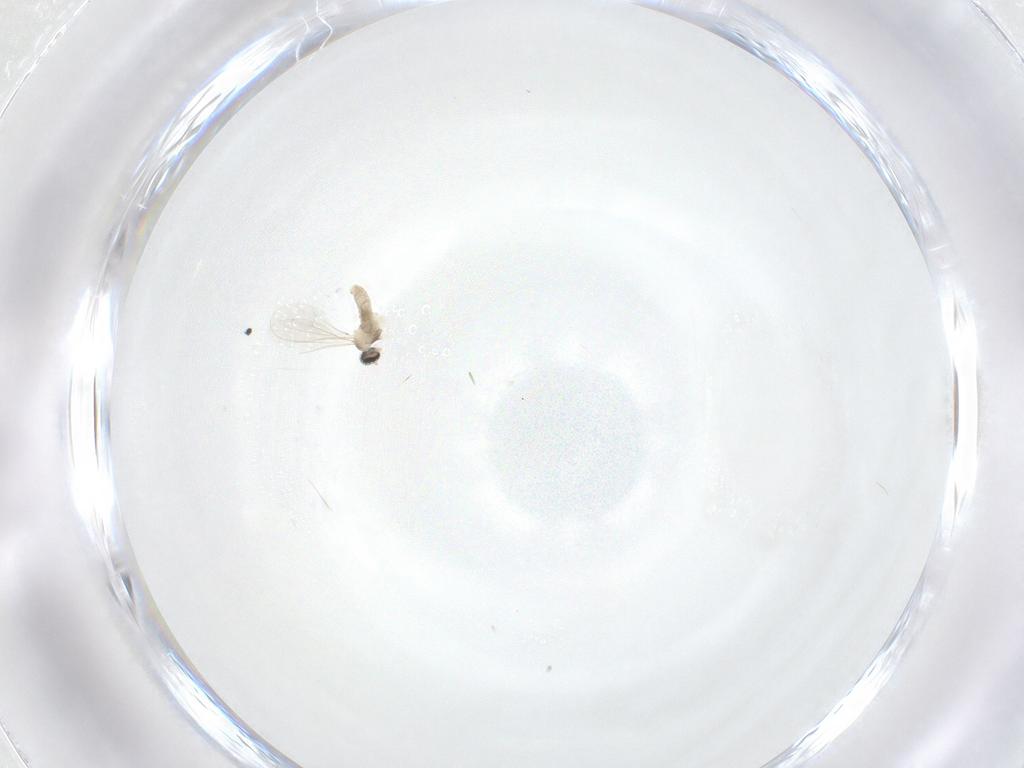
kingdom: Animalia
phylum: Arthropoda
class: Insecta
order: Diptera
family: Cecidomyiidae
